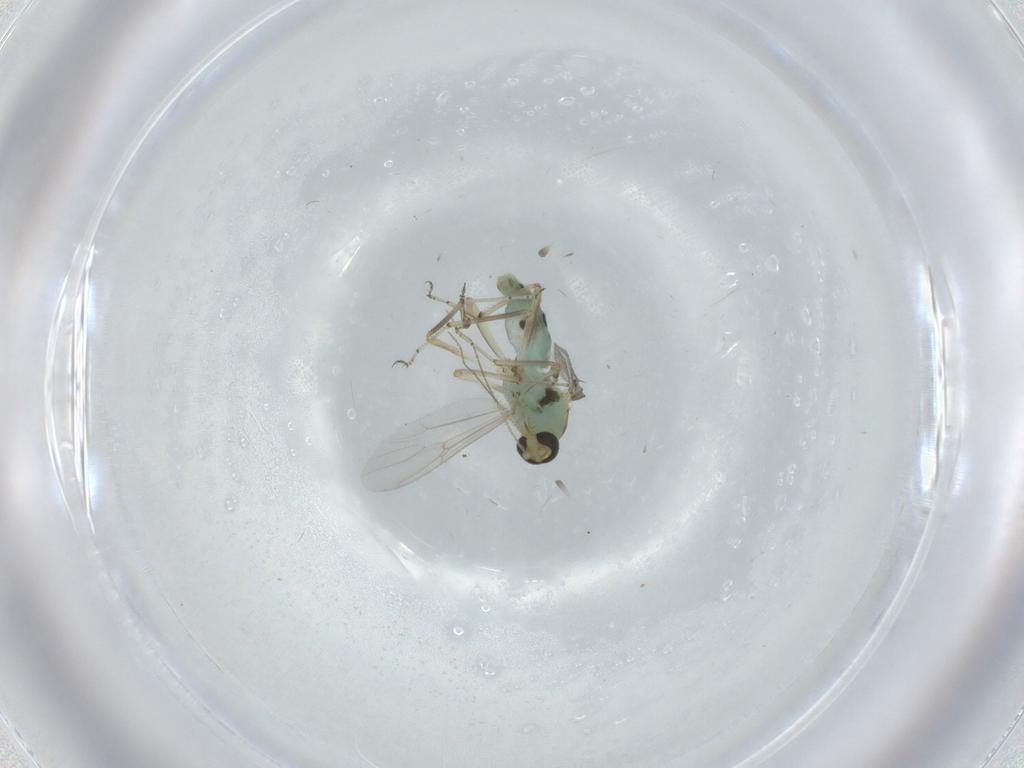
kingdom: Animalia
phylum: Arthropoda
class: Insecta
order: Diptera
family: Ceratopogonidae
